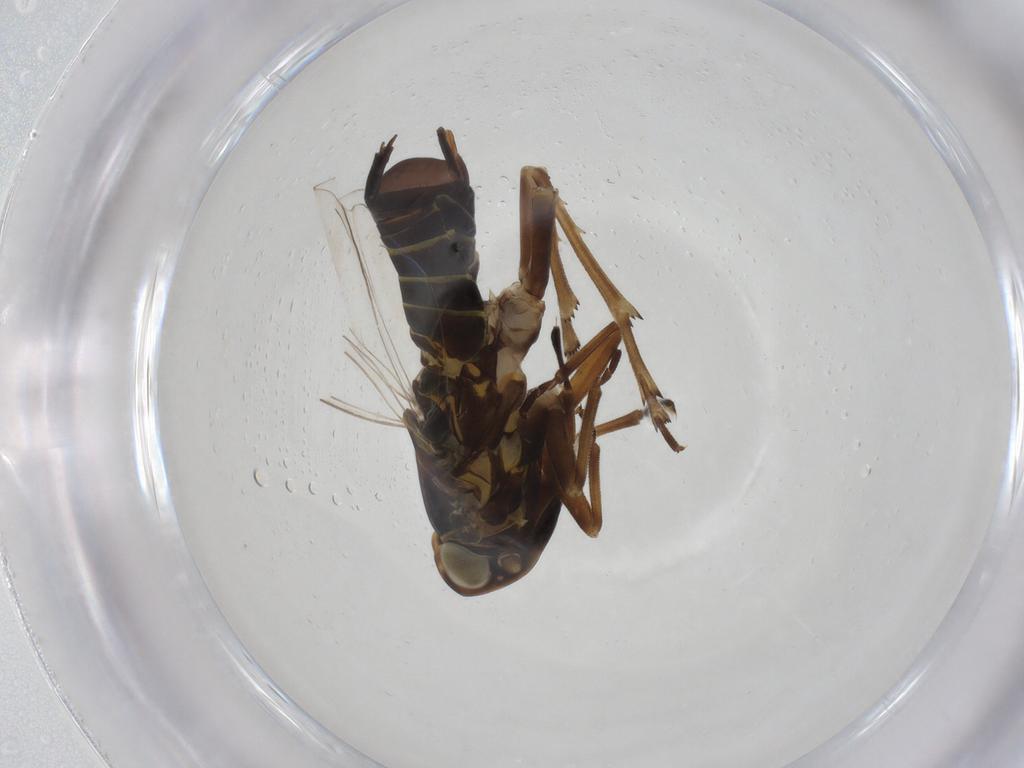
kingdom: Animalia
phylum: Arthropoda
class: Insecta
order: Hemiptera
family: Cixiidae
